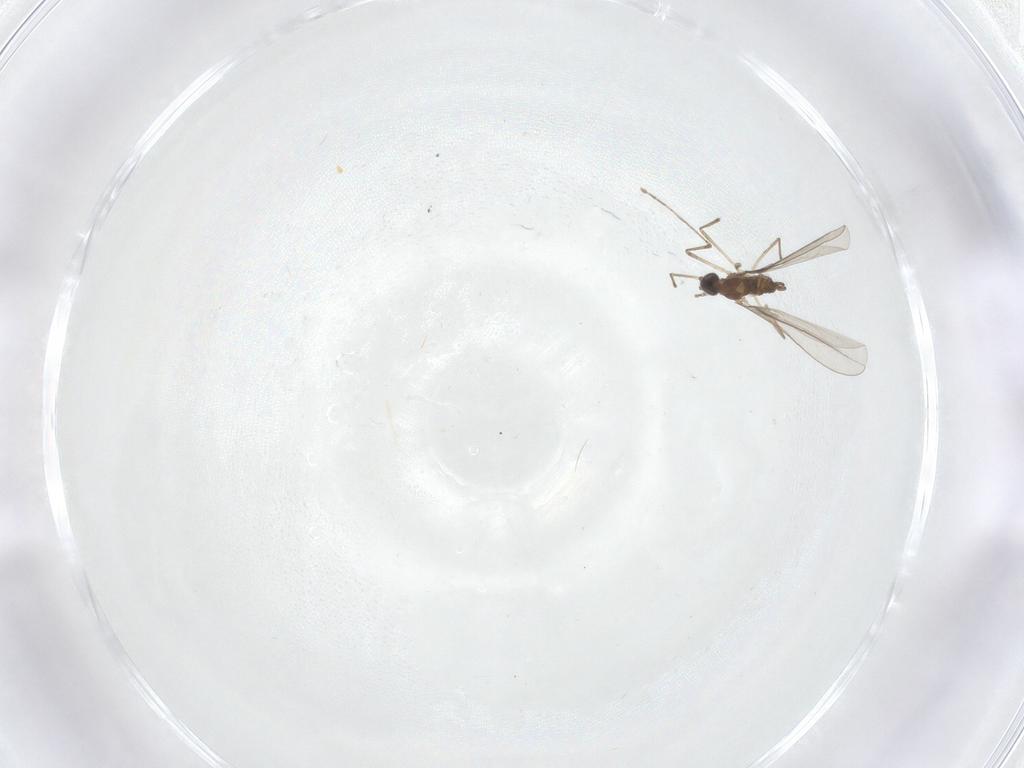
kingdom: Animalia
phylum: Arthropoda
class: Insecta
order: Diptera
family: Cecidomyiidae
